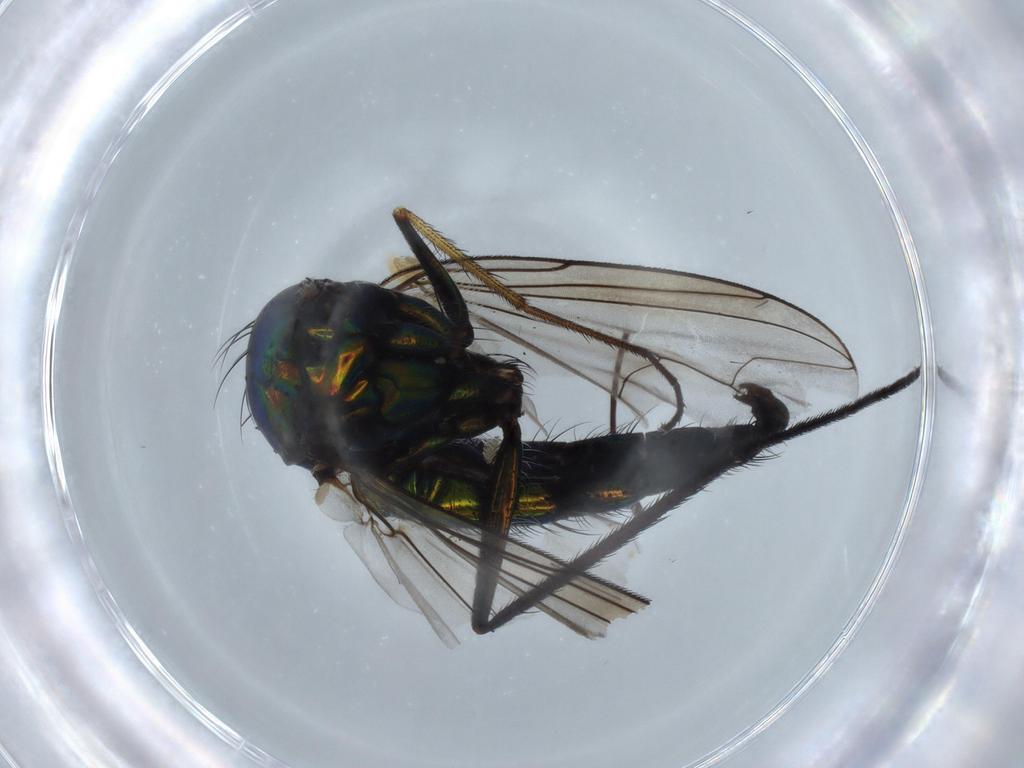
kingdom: Animalia
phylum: Arthropoda
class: Insecta
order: Diptera
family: Dolichopodidae
